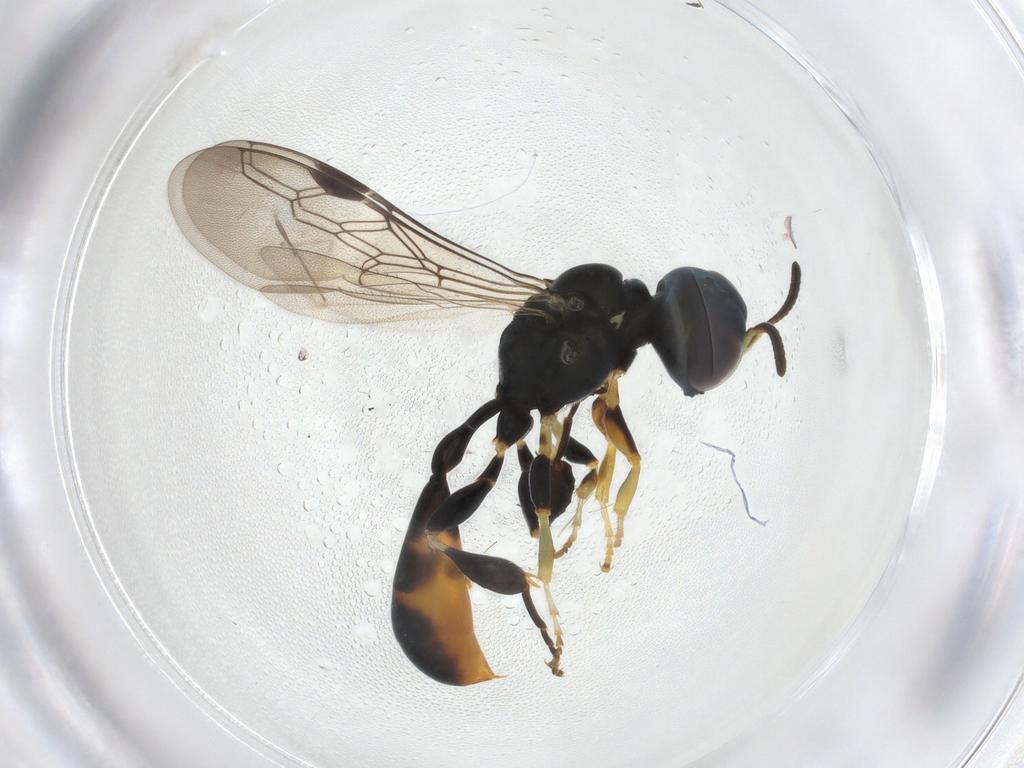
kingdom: Animalia
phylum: Arthropoda
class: Insecta
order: Hymenoptera
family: Crabronidae
